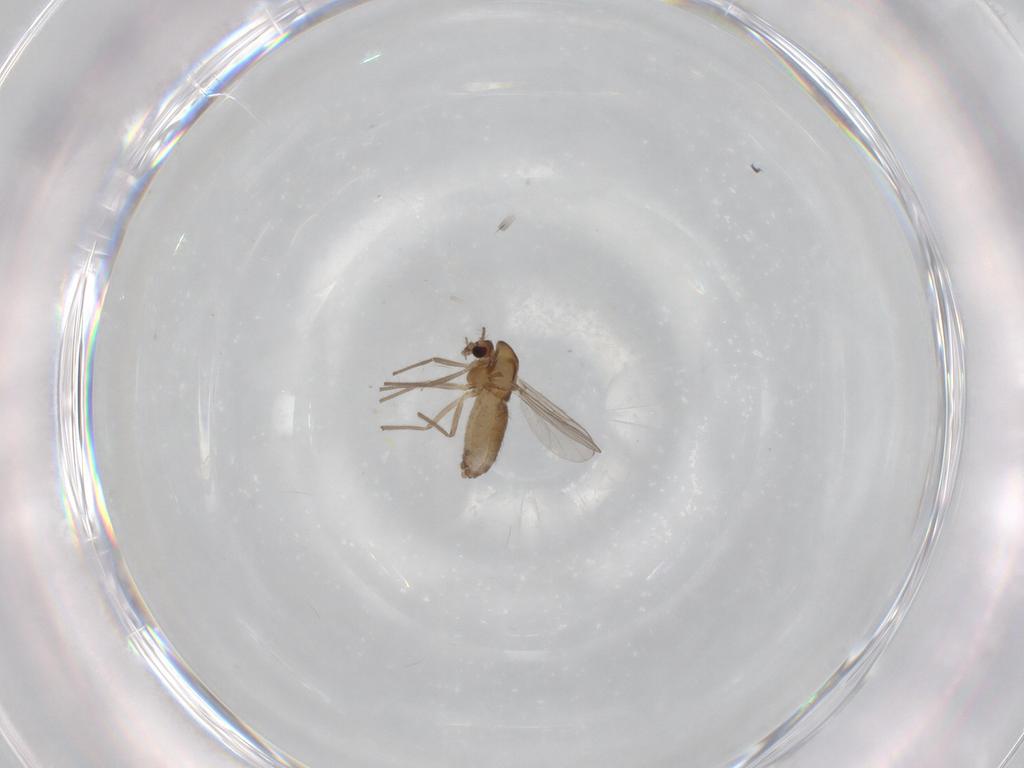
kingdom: Animalia
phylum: Arthropoda
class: Insecta
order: Diptera
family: Chironomidae
